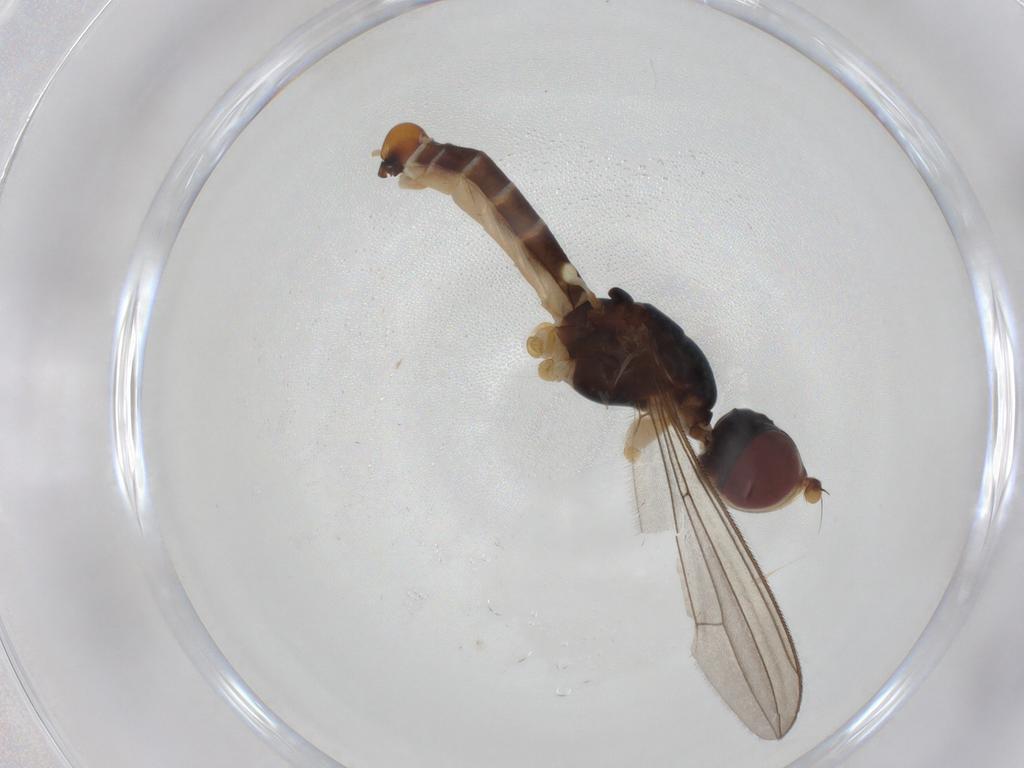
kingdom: Animalia
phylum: Arthropoda
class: Insecta
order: Diptera
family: Micropezidae
